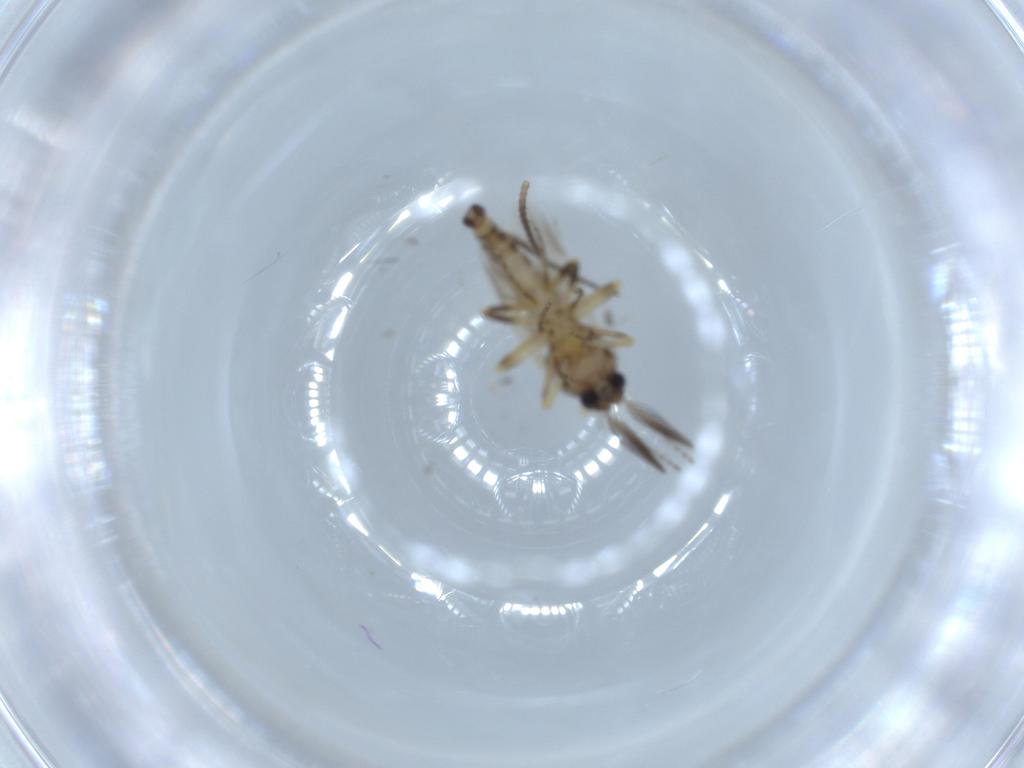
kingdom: Animalia
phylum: Arthropoda
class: Insecta
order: Diptera
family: Ceratopogonidae
